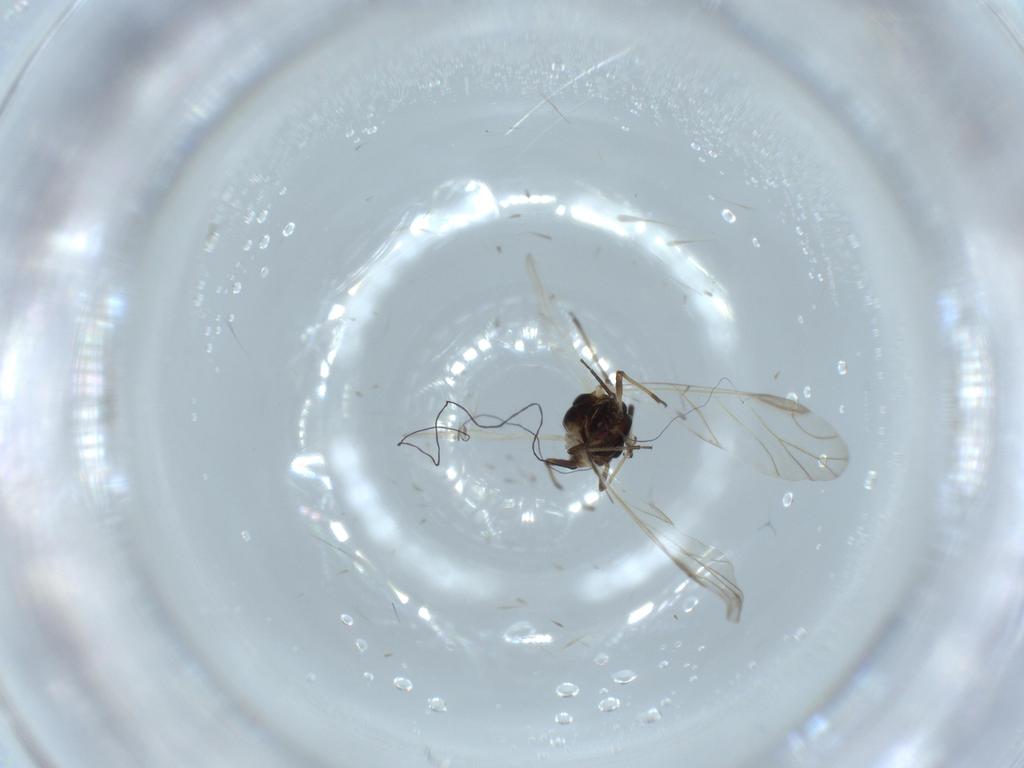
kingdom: Animalia
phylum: Arthropoda
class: Insecta
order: Hemiptera
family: Aphididae
